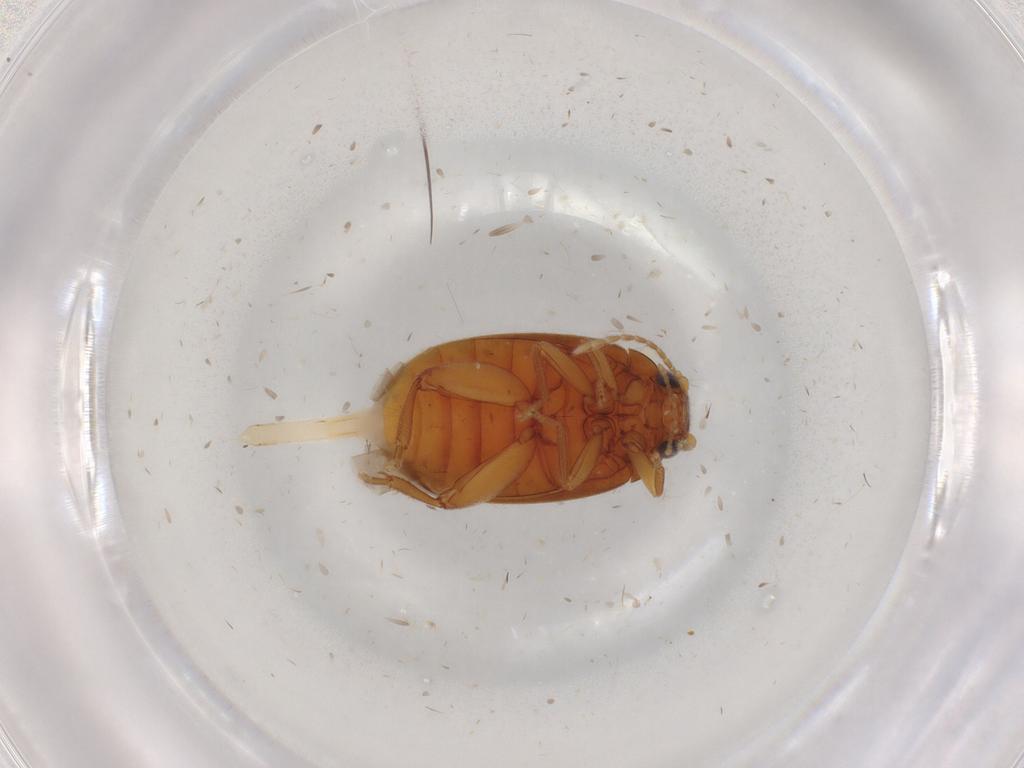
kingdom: Animalia
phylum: Arthropoda
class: Insecta
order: Coleoptera
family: Scirtidae
